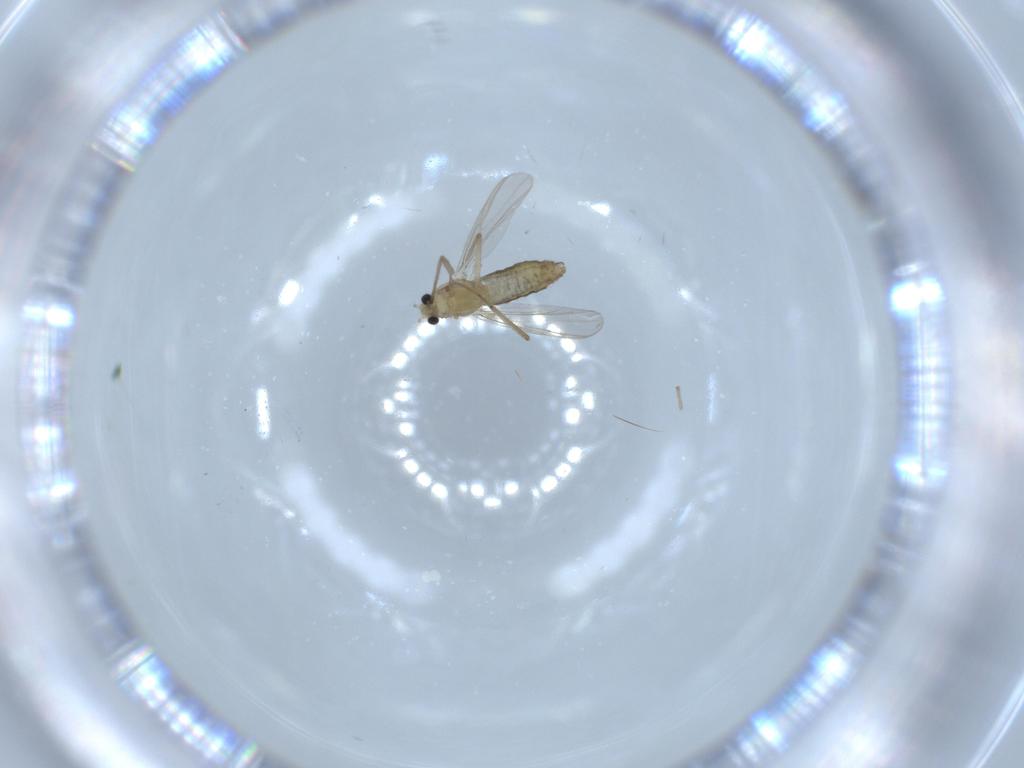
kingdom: Animalia
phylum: Arthropoda
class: Insecta
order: Diptera
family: Chironomidae
